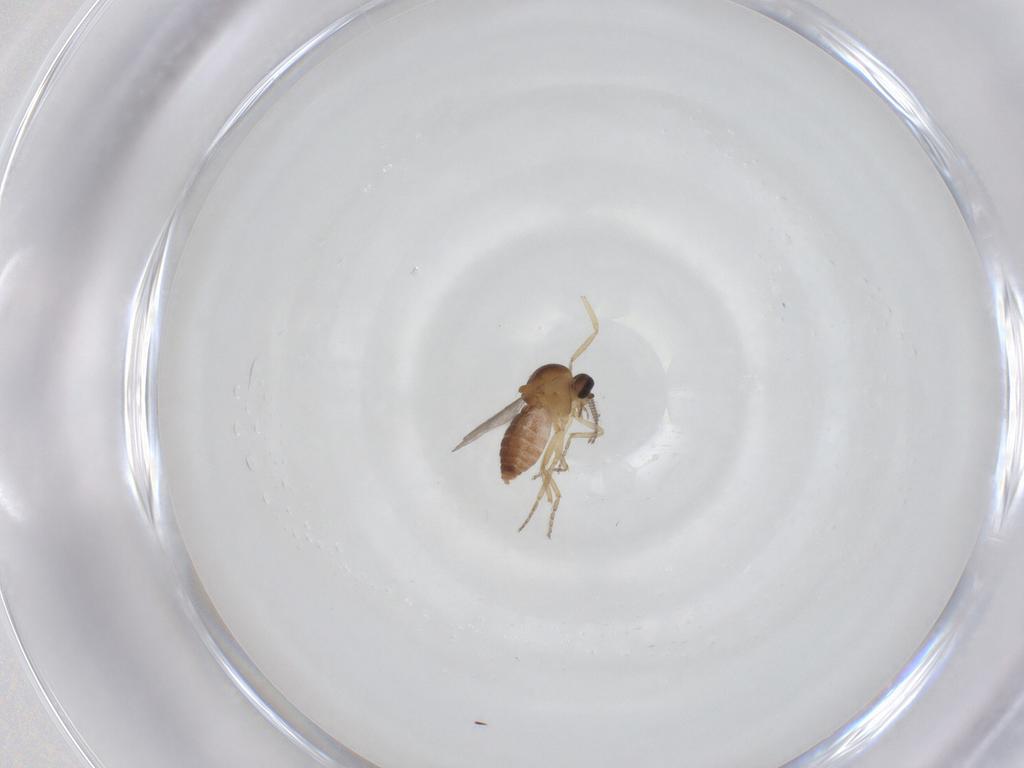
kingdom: Animalia
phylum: Arthropoda
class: Insecta
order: Diptera
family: Ceratopogonidae
